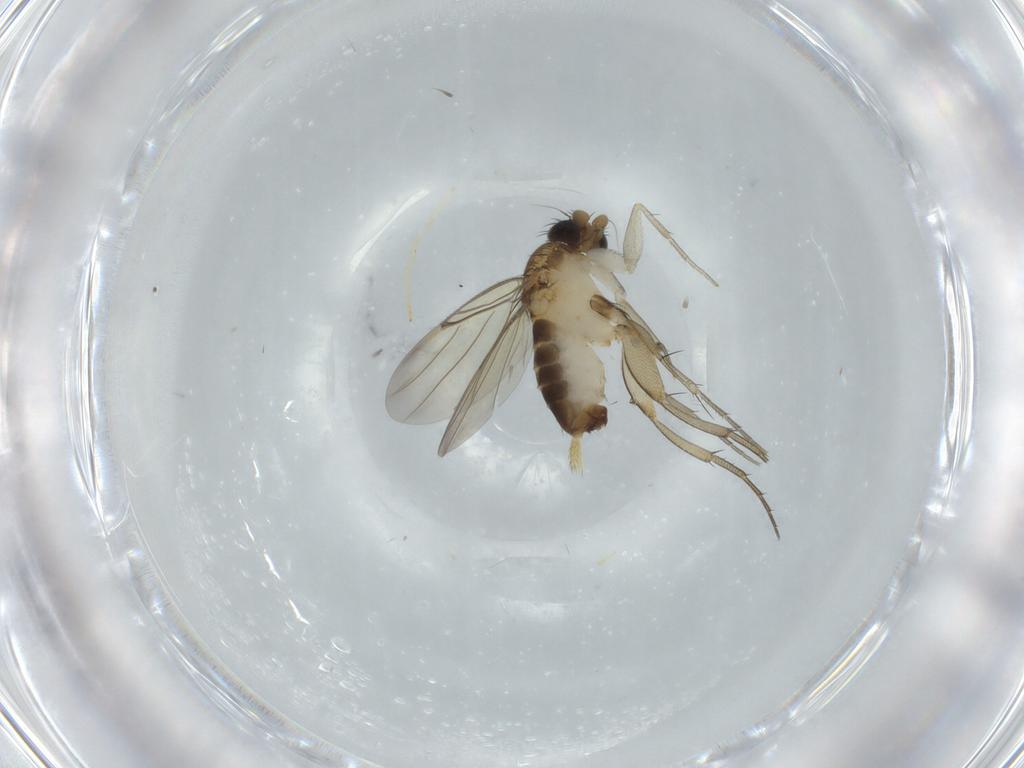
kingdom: Animalia
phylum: Arthropoda
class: Insecta
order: Diptera
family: Phoridae
